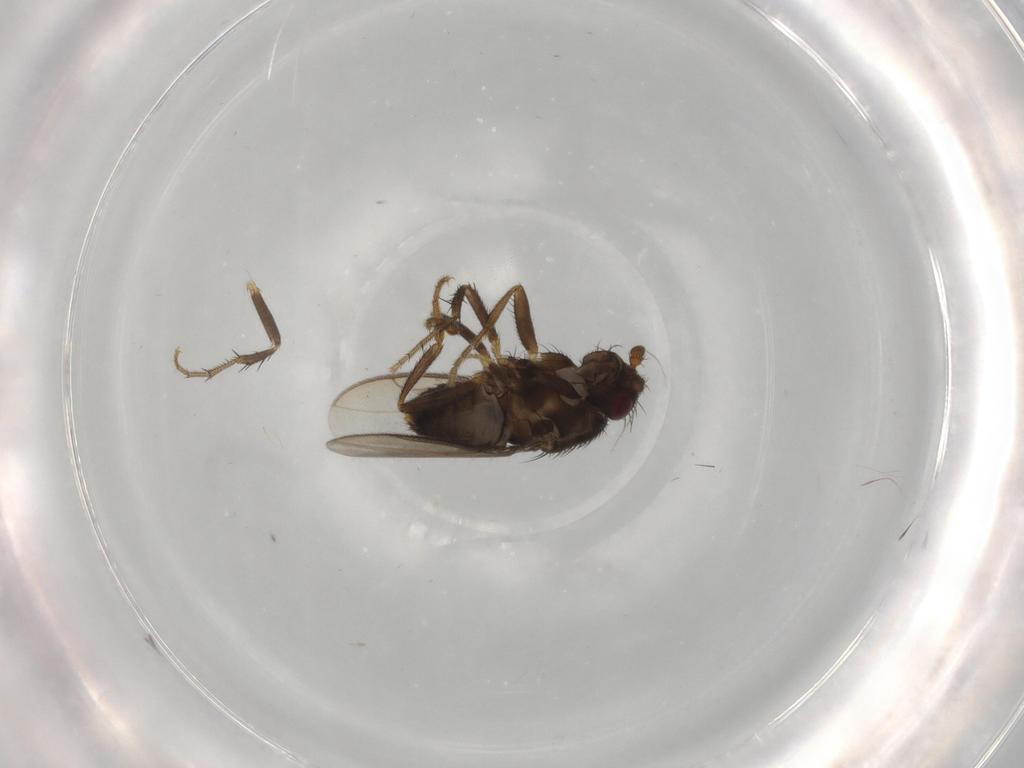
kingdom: Animalia
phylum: Arthropoda
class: Insecta
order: Diptera
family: Sphaeroceridae
